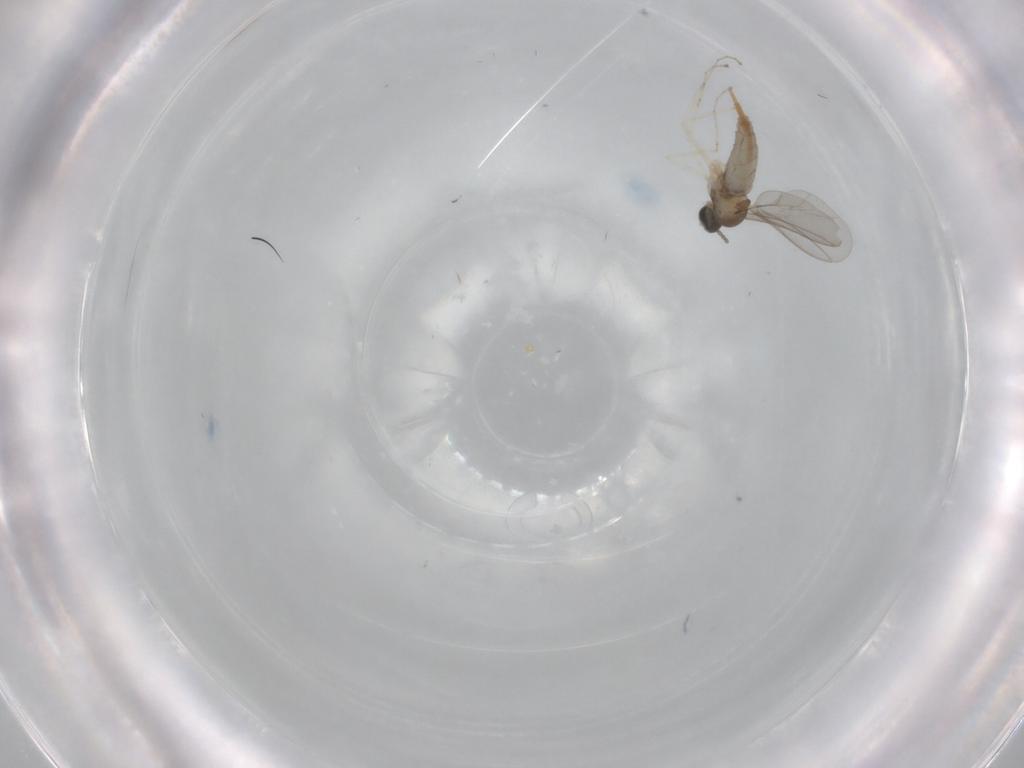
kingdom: Animalia
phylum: Arthropoda
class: Insecta
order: Diptera
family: Cecidomyiidae
